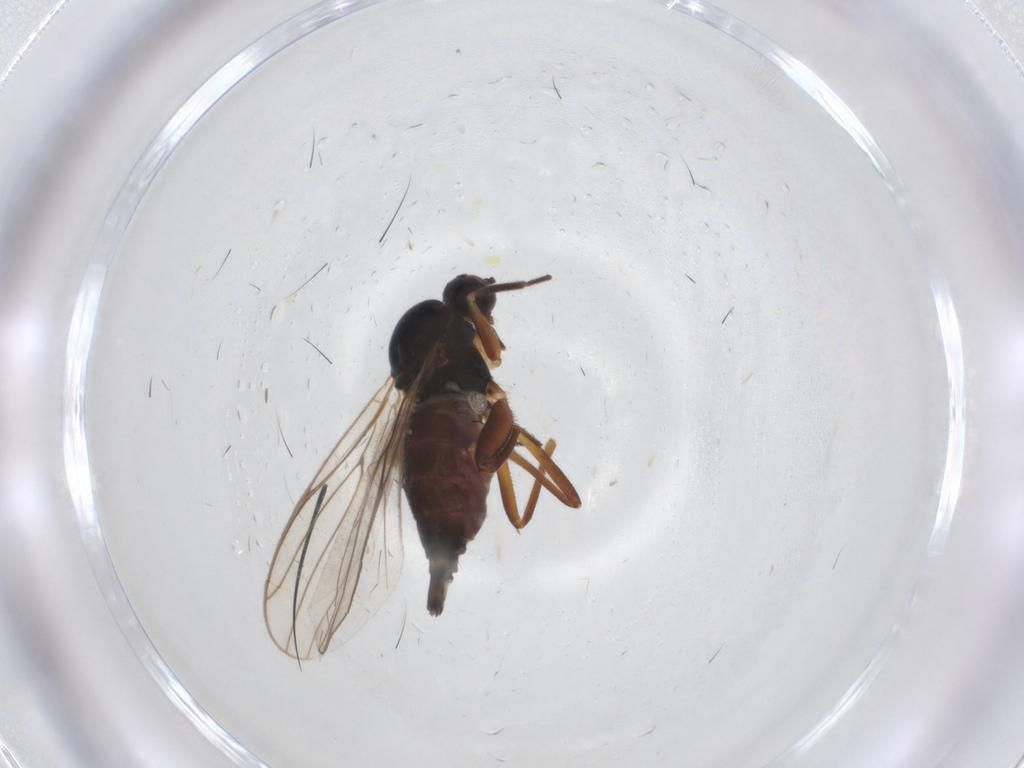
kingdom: Animalia
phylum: Arthropoda
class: Insecta
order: Diptera
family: Hybotidae
